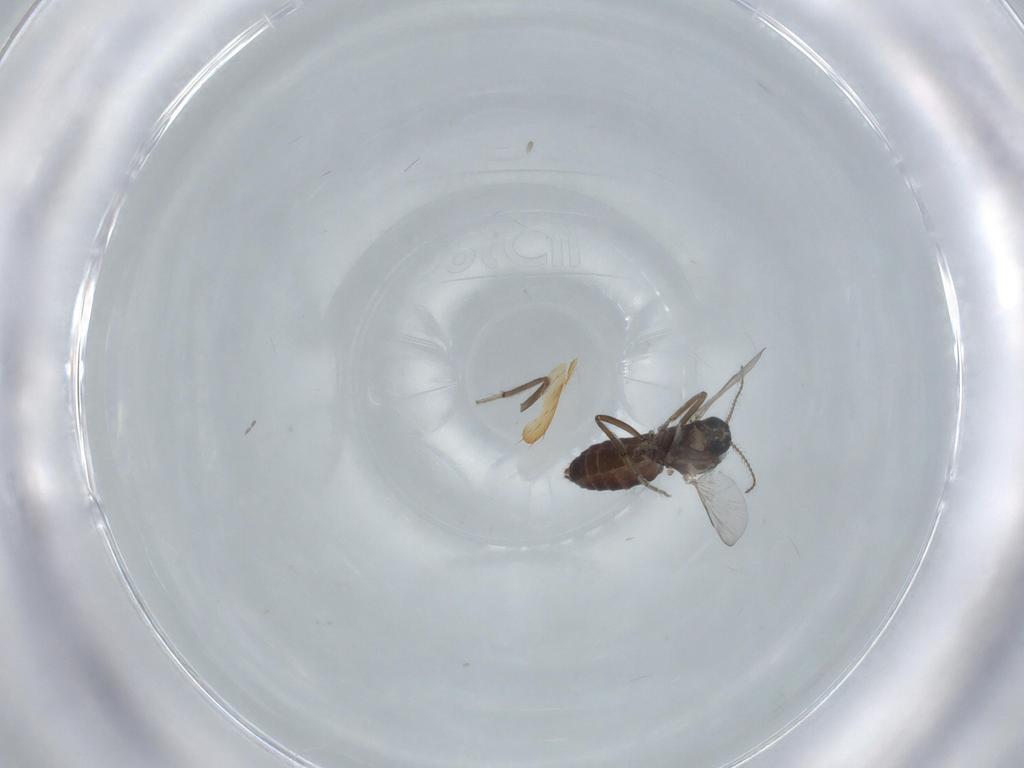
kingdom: Animalia
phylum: Arthropoda
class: Insecta
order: Diptera
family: Ceratopogonidae
